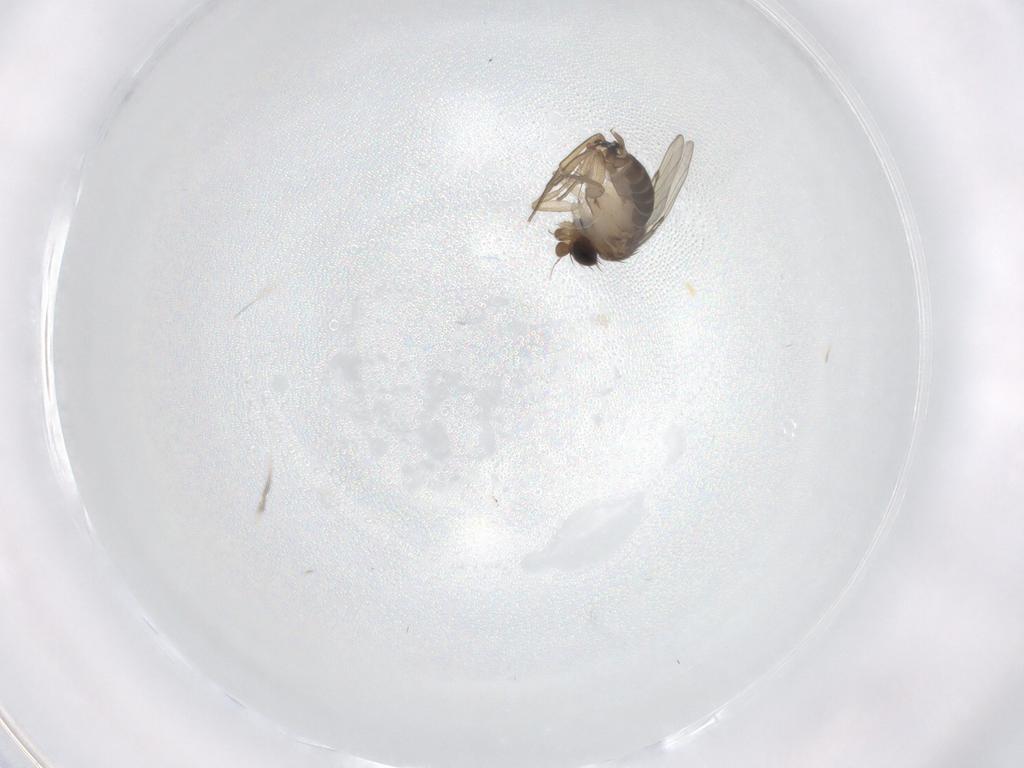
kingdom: Animalia
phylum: Arthropoda
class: Insecta
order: Diptera
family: Phoridae
